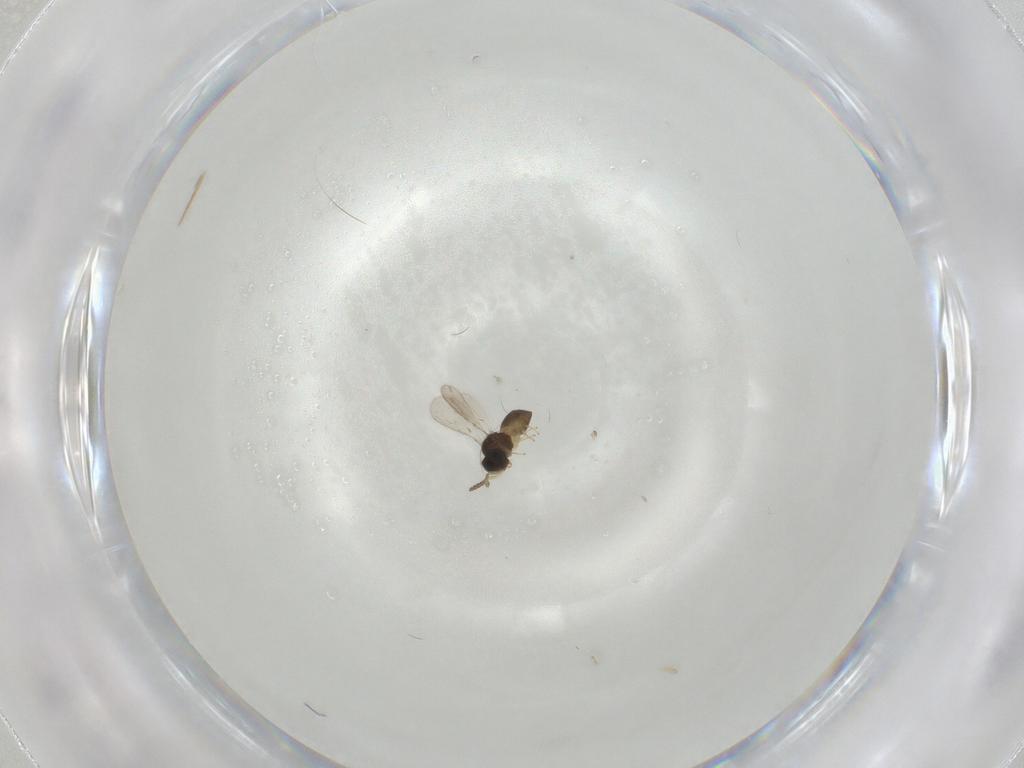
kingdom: Animalia
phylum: Arthropoda
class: Insecta
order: Hymenoptera
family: Scelionidae
